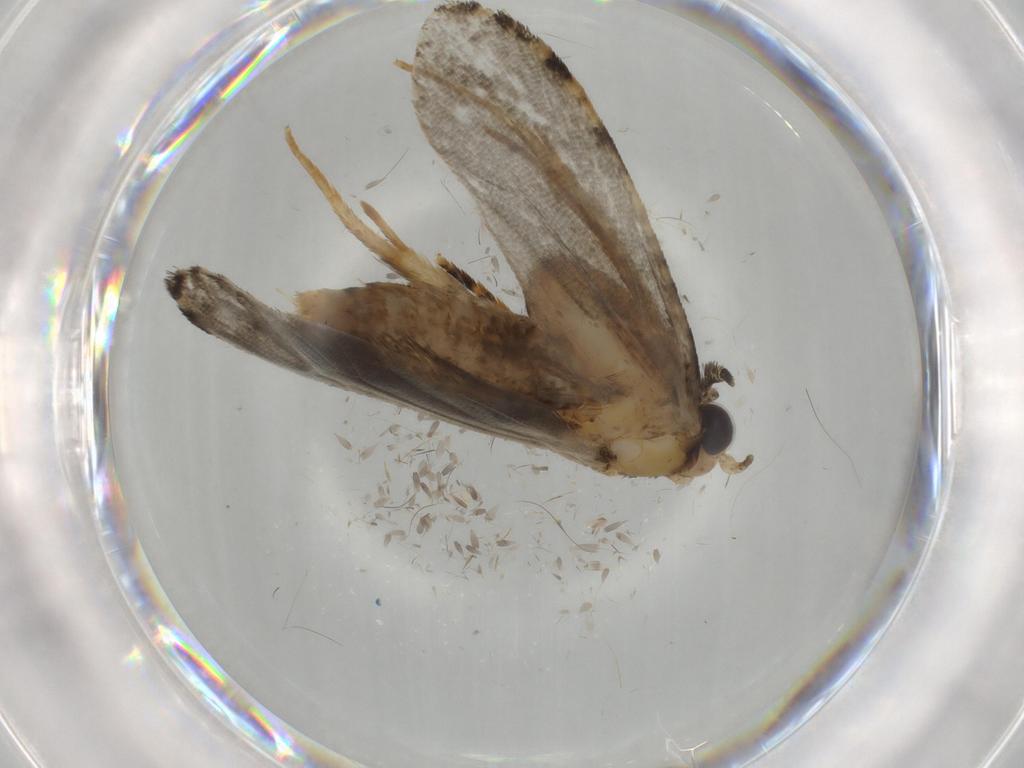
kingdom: Animalia
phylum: Arthropoda
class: Insecta
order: Lepidoptera
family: Tineidae
